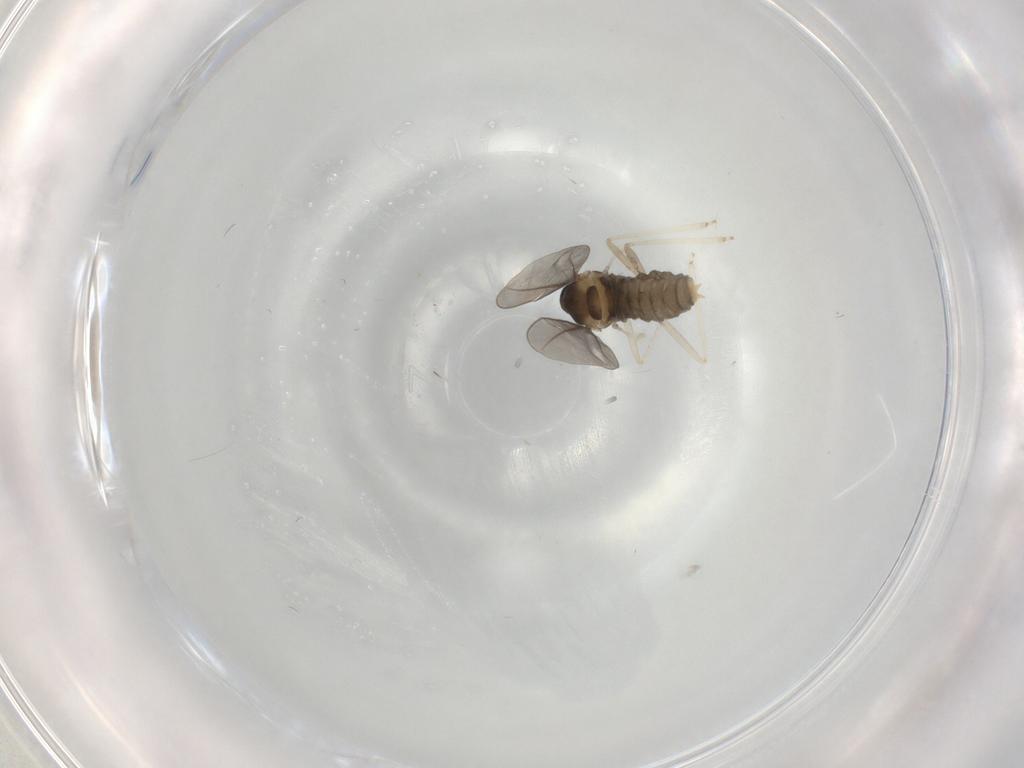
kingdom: Animalia
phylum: Arthropoda
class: Insecta
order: Diptera
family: Cecidomyiidae
